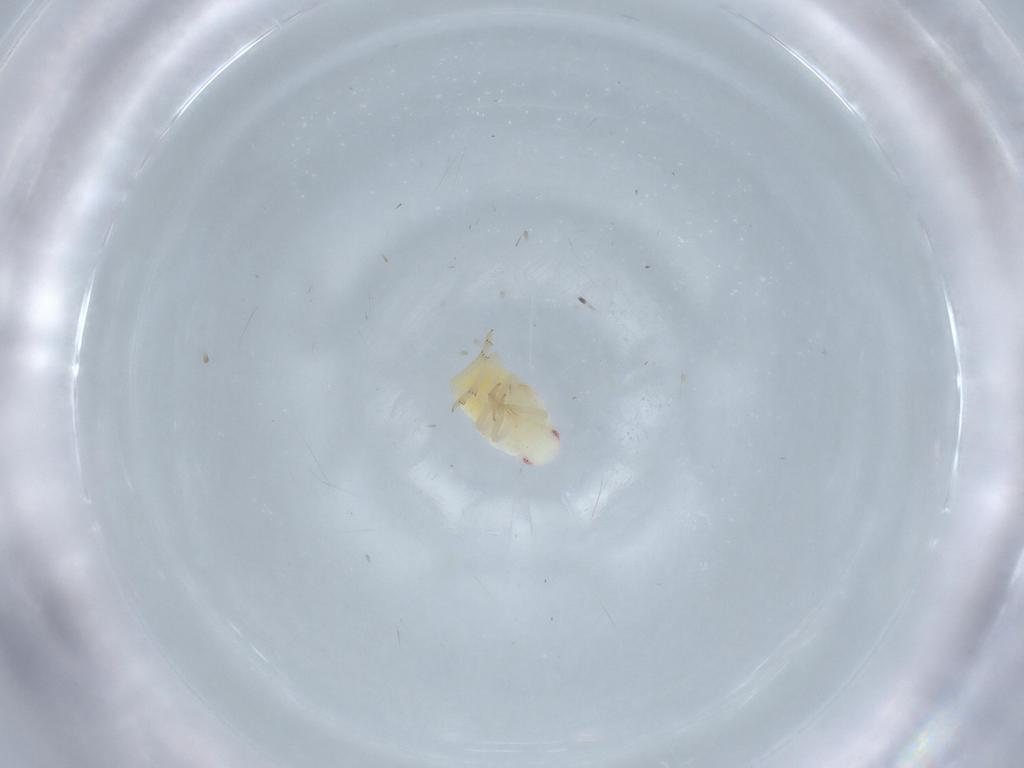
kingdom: Animalia
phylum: Arthropoda
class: Insecta
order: Hemiptera
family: Flatidae
